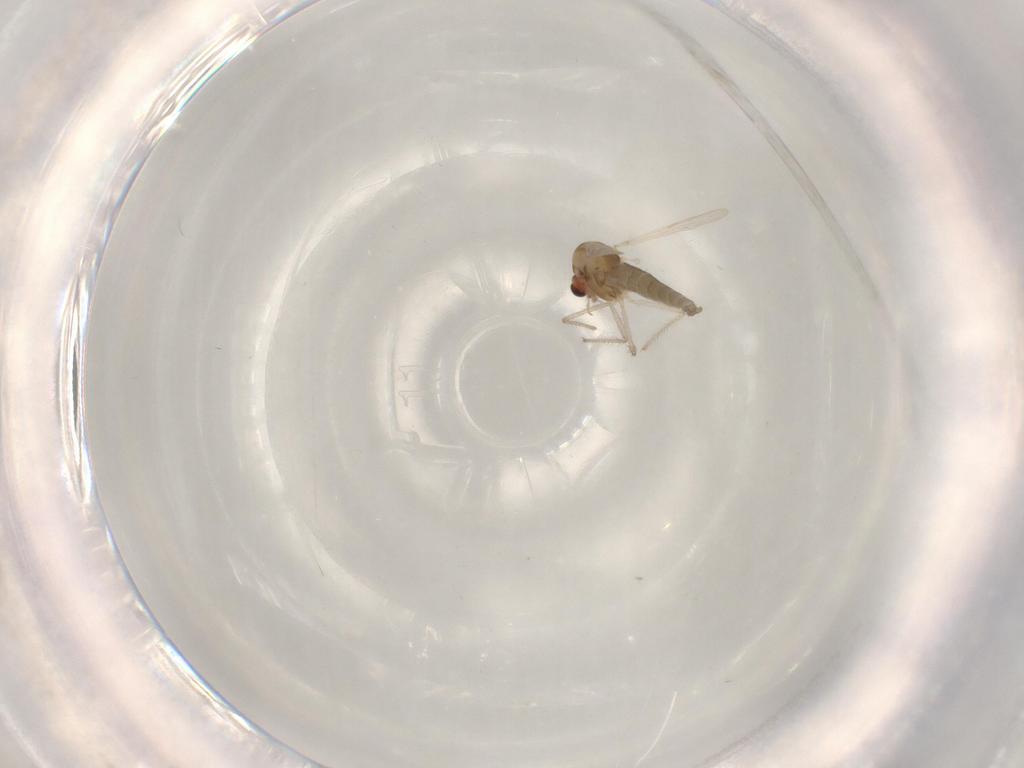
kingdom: Animalia
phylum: Arthropoda
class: Insecta
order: Diptera
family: Chironomidae
